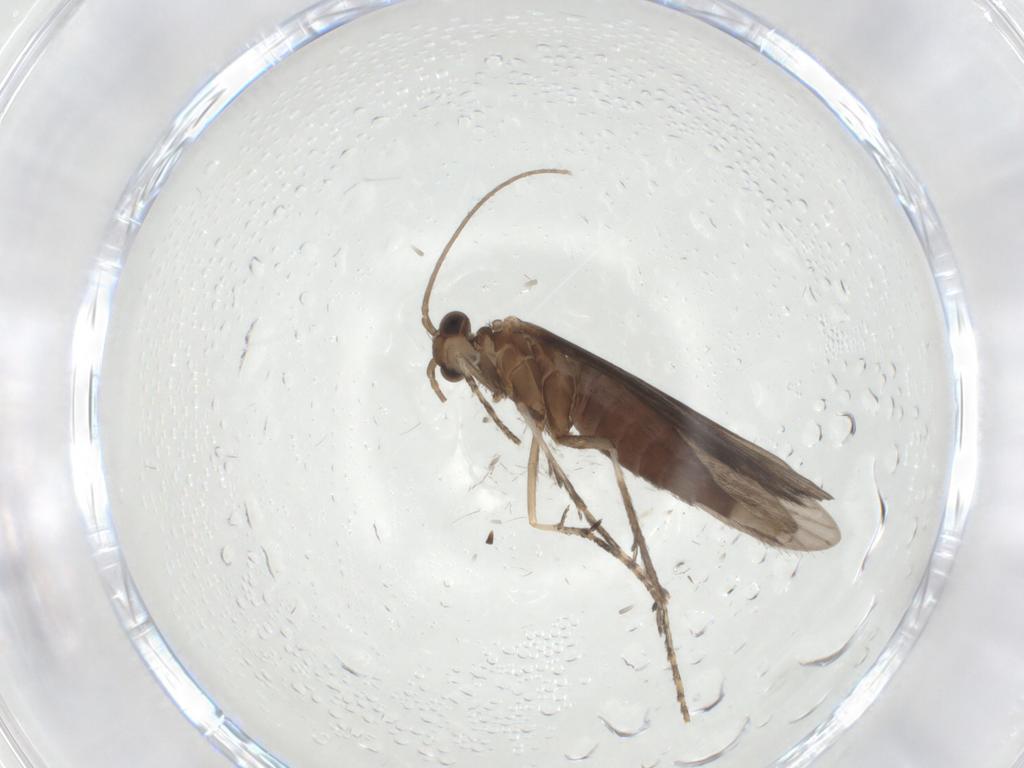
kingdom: Animalia
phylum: Arthropoda
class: Insecta
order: Trichoptera
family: Xiphocentronidae
